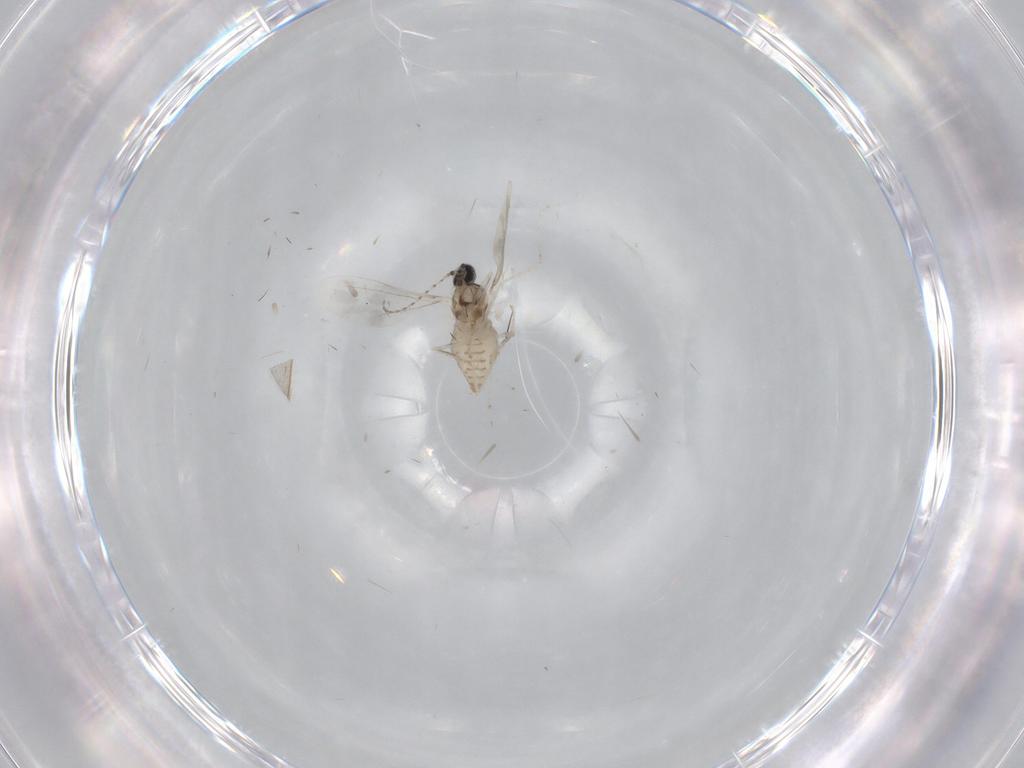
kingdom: Animalia
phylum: Arthropoda
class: Insecta
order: Diptera
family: Cecidomyiidae
